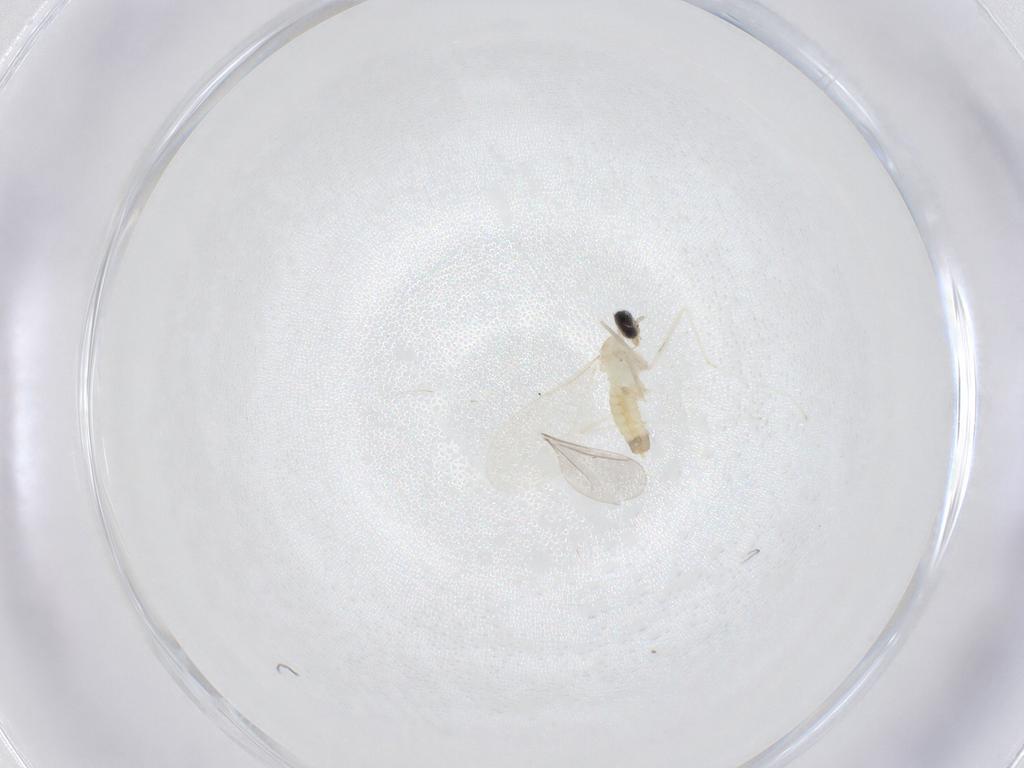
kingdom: Animalia
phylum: Arthropoda
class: Insecta
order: Diptera
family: Cecidomyiidae
